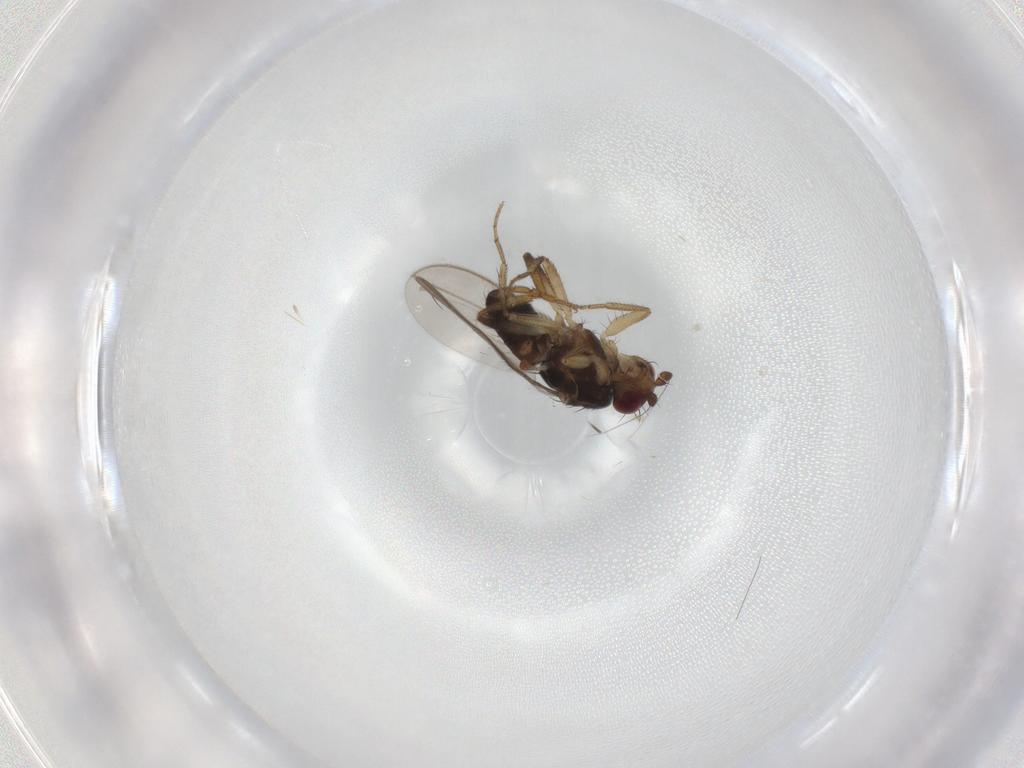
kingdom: Animalia
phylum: Arthropoda
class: Insecta
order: Diptera
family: Sphaeroceridae
